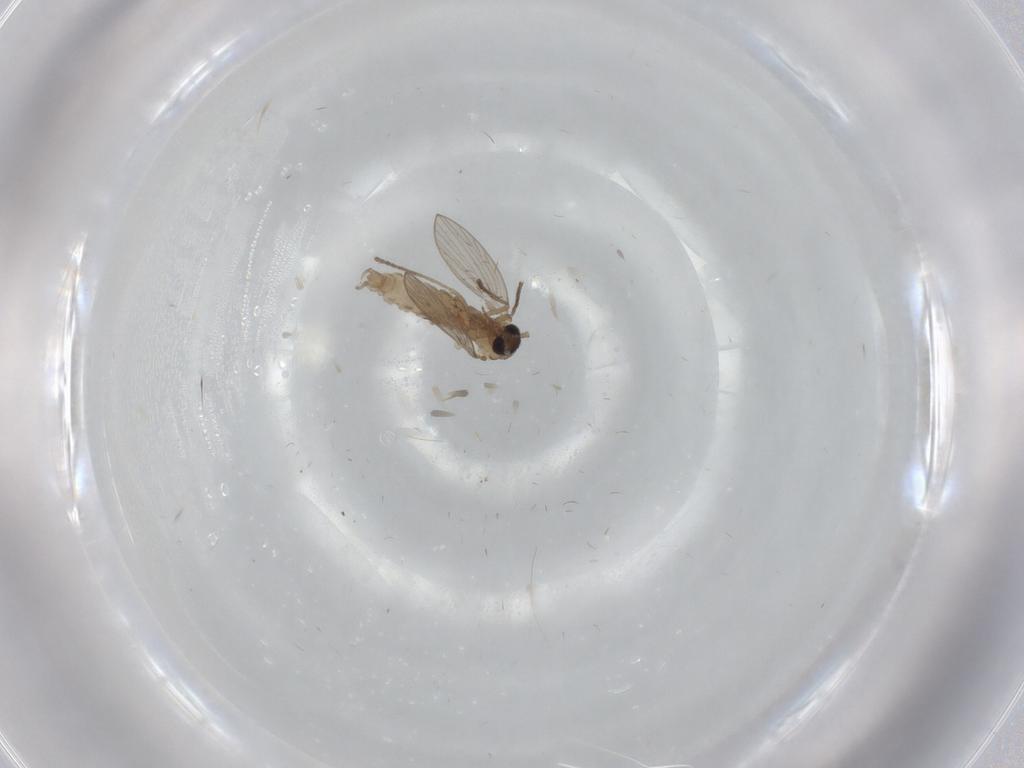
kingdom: Animalia
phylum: Arthropoda
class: Insecta
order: Diptera
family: Psychodidae
